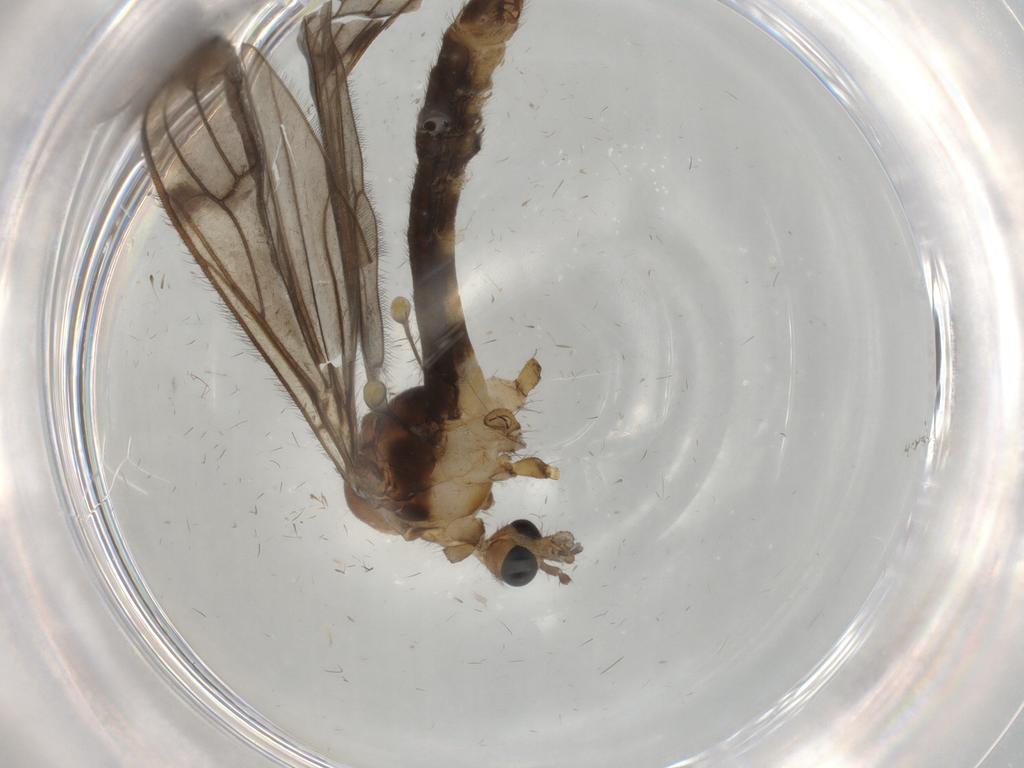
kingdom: Animalia
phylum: Arthropoda
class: Insecta
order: Diptera
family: Limoniidae
